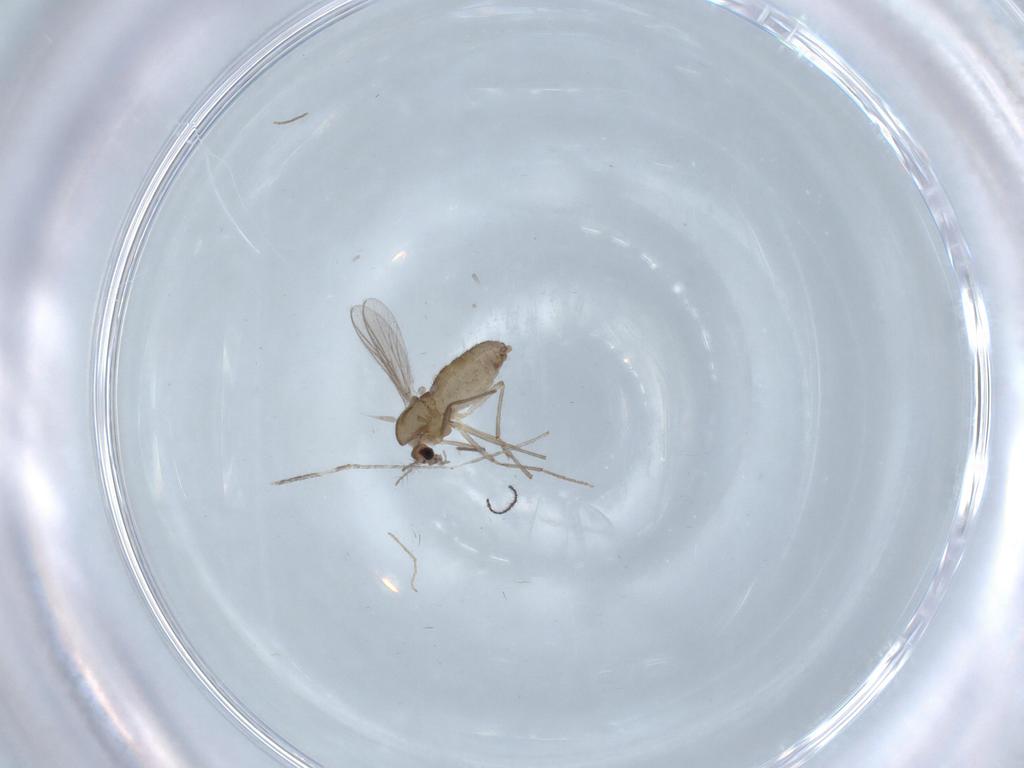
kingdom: Animalia
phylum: Arthropoda
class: Insecta
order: Diptera
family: Chironomidae
